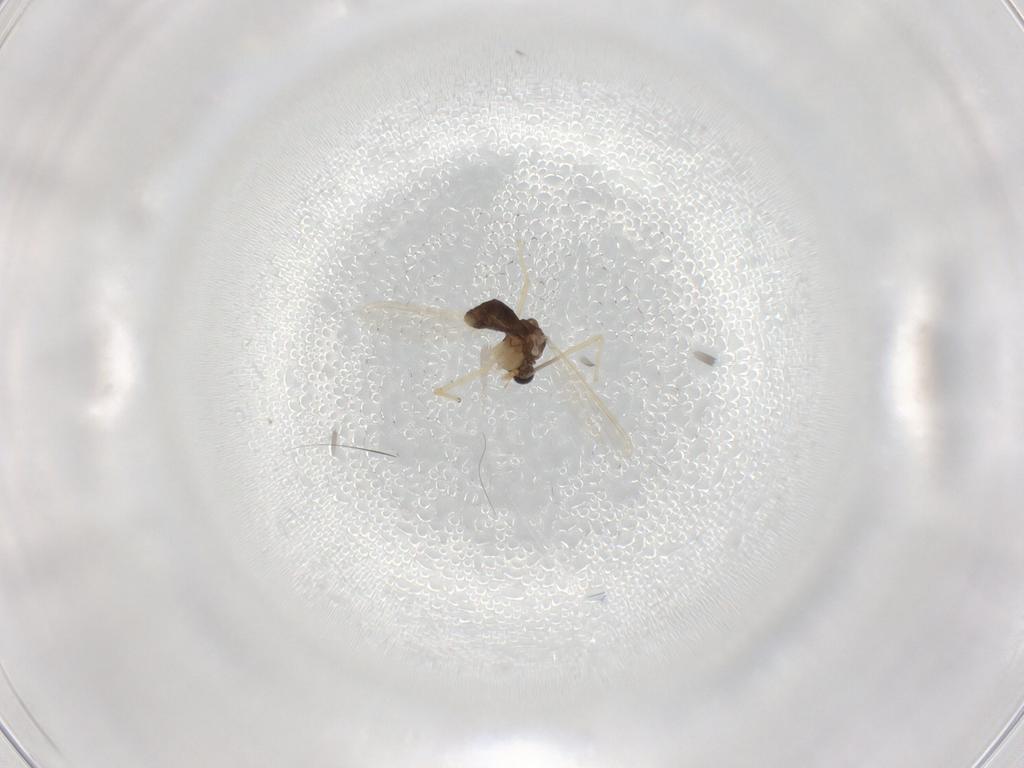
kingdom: Animalia
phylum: Arthropoda
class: Insecta
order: Diptera
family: Chironomidae
